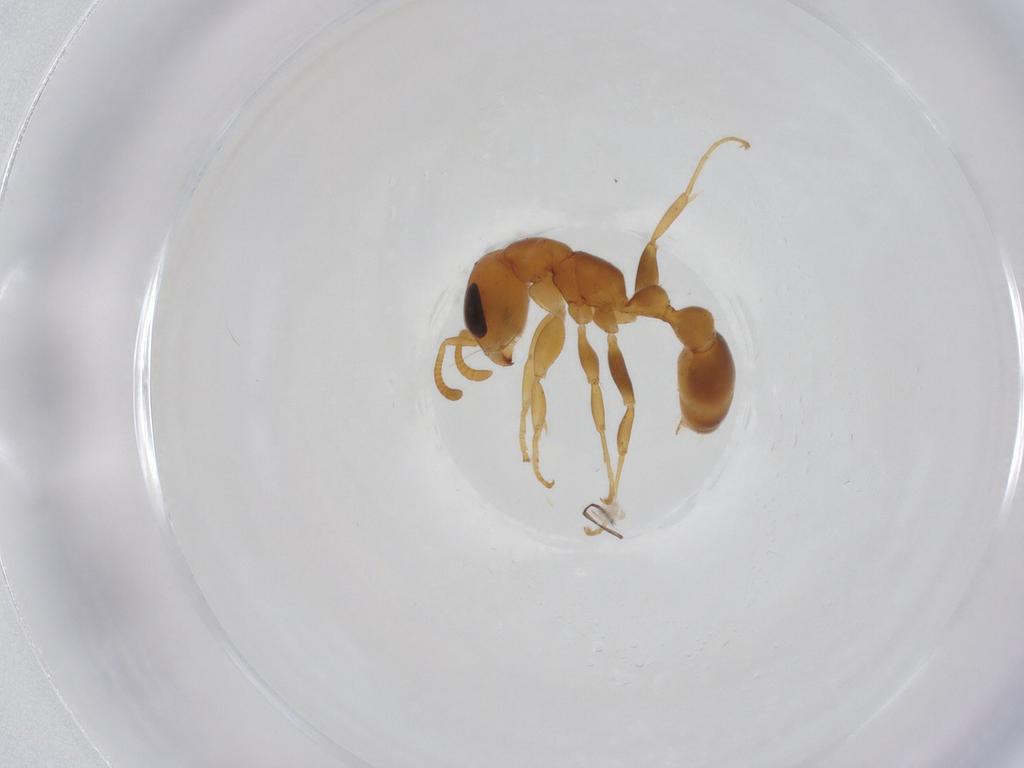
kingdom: Animalia
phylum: Arthropoda
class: Insecta
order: Hymenoptera
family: Formicidae
